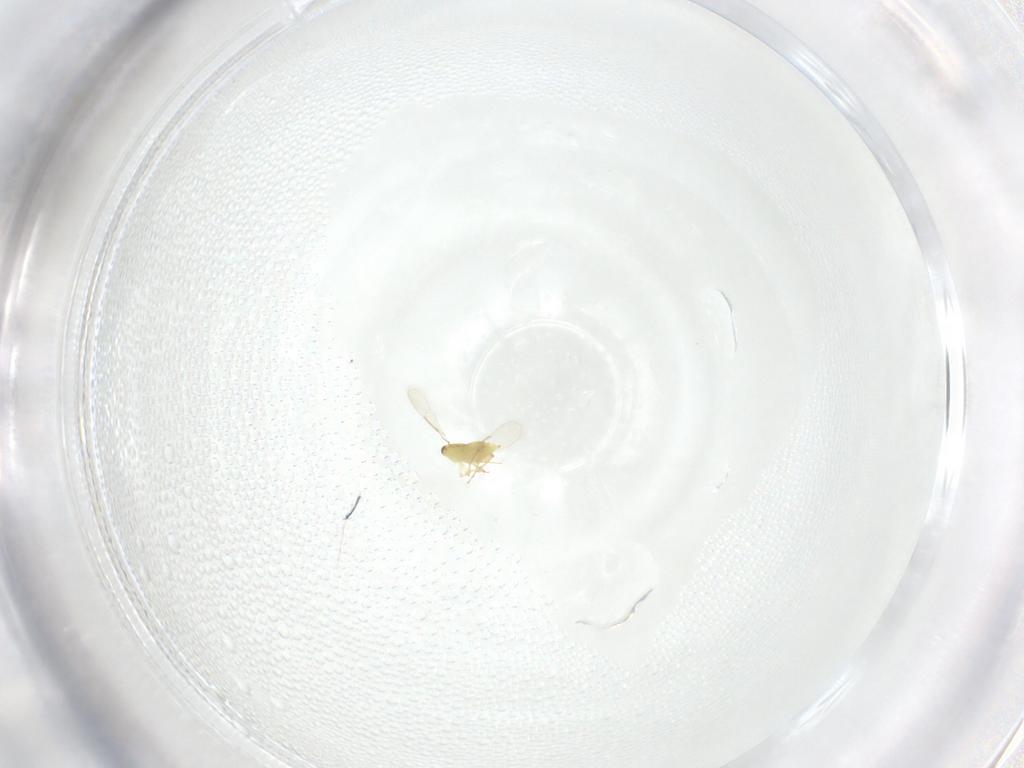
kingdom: Animalia
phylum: Arthropoda
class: Insecta
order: Hymenoptera
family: Aphelinidae
